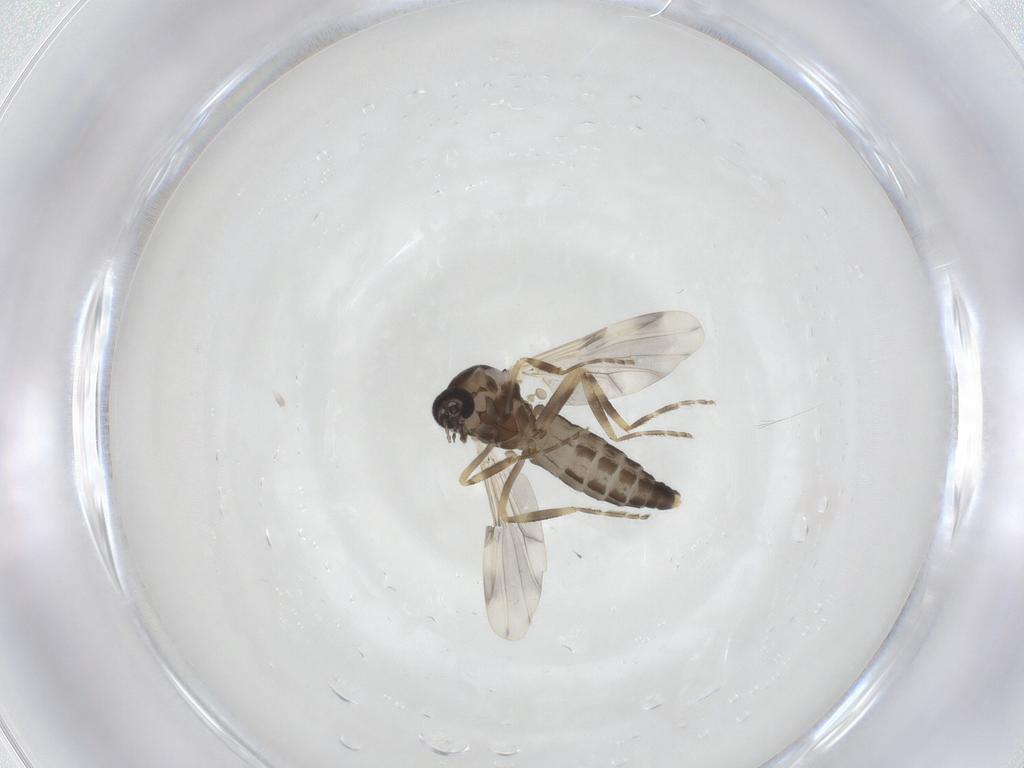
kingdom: Animalia
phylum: Arthropoda
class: Insecta
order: Diptera
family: Ceratopogonidae
